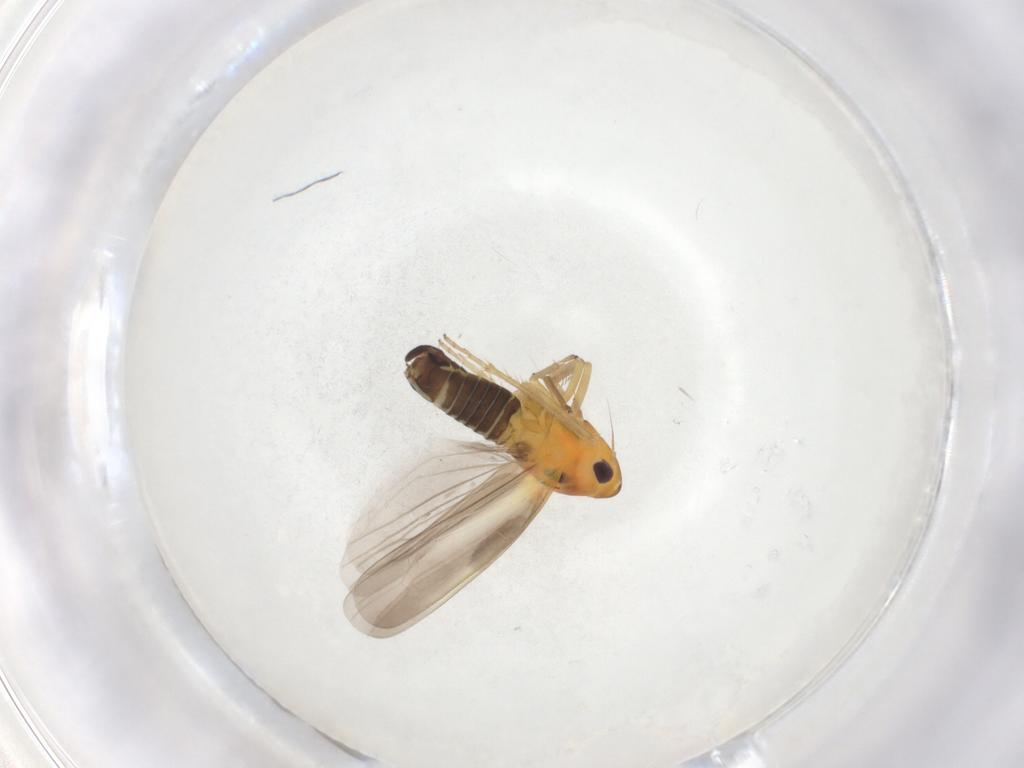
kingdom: Animalia
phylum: Arthropoda
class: Insecta
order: Hemiptera
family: Cicadellidae
